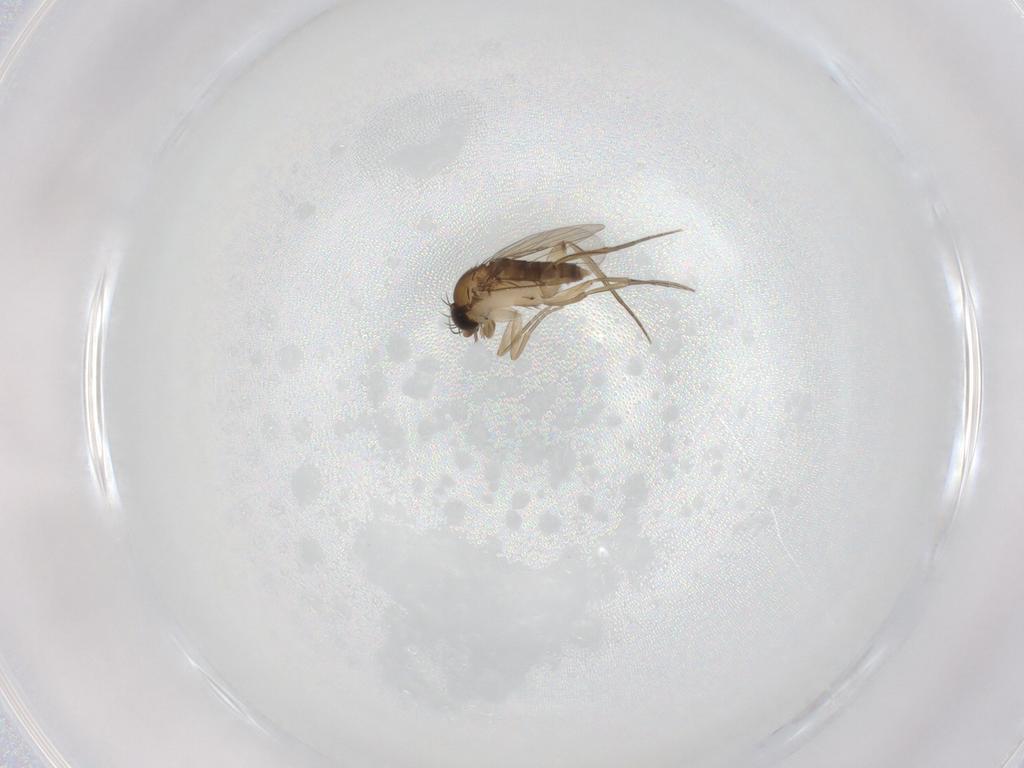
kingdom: Animalia
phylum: Arthropoda
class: Insecta
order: Diptera
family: Phoridae
